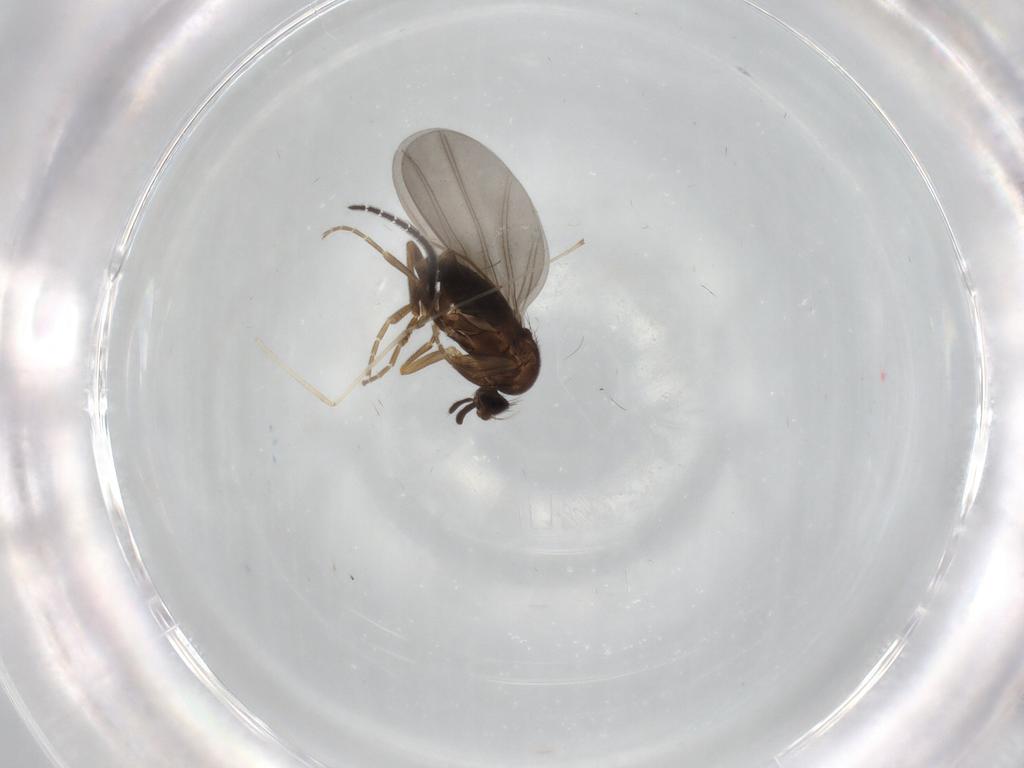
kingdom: Animalia
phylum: Arthropoda
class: Insecta
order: Diptera
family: Cecidomyiidae
